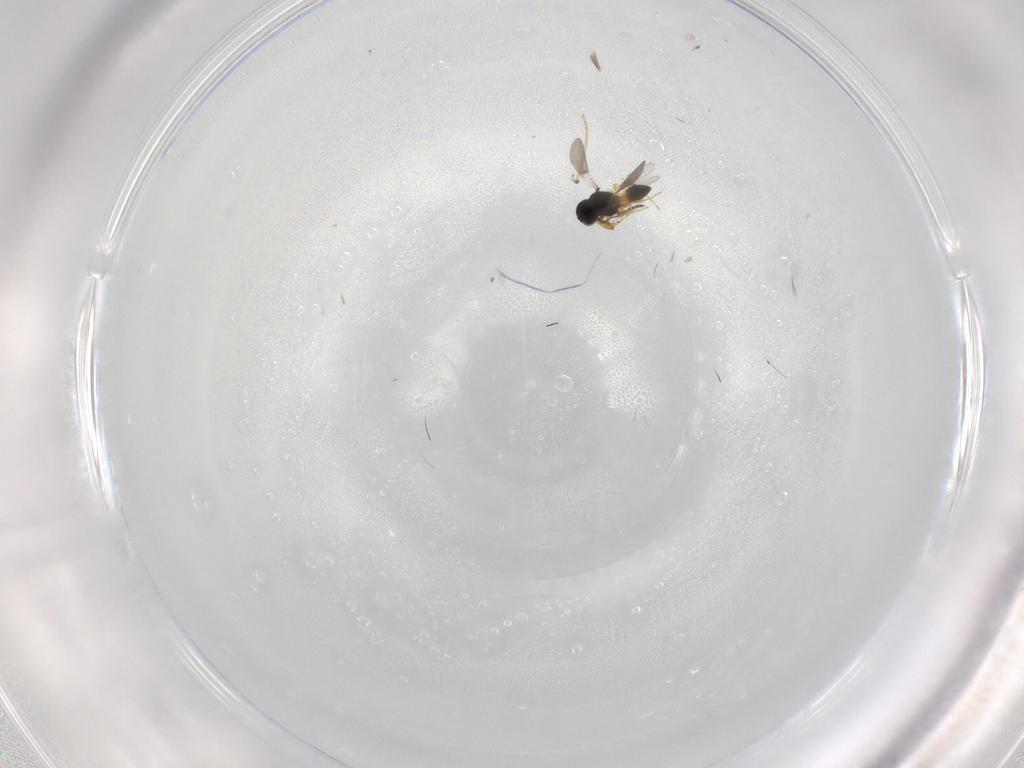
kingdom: Animalia
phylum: Arthropoda
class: Insecta
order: Hymenoptera
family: Platygastridae
